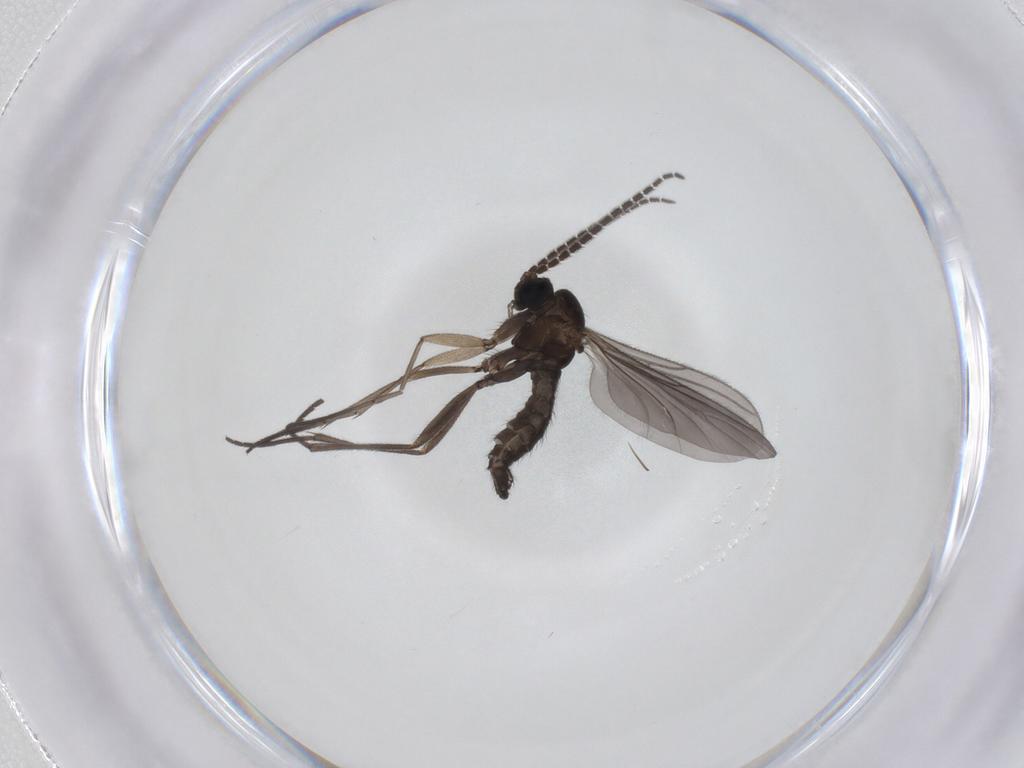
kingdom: Animalia
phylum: Arthropoda
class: Insecta
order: Diptera
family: Sciaridae
